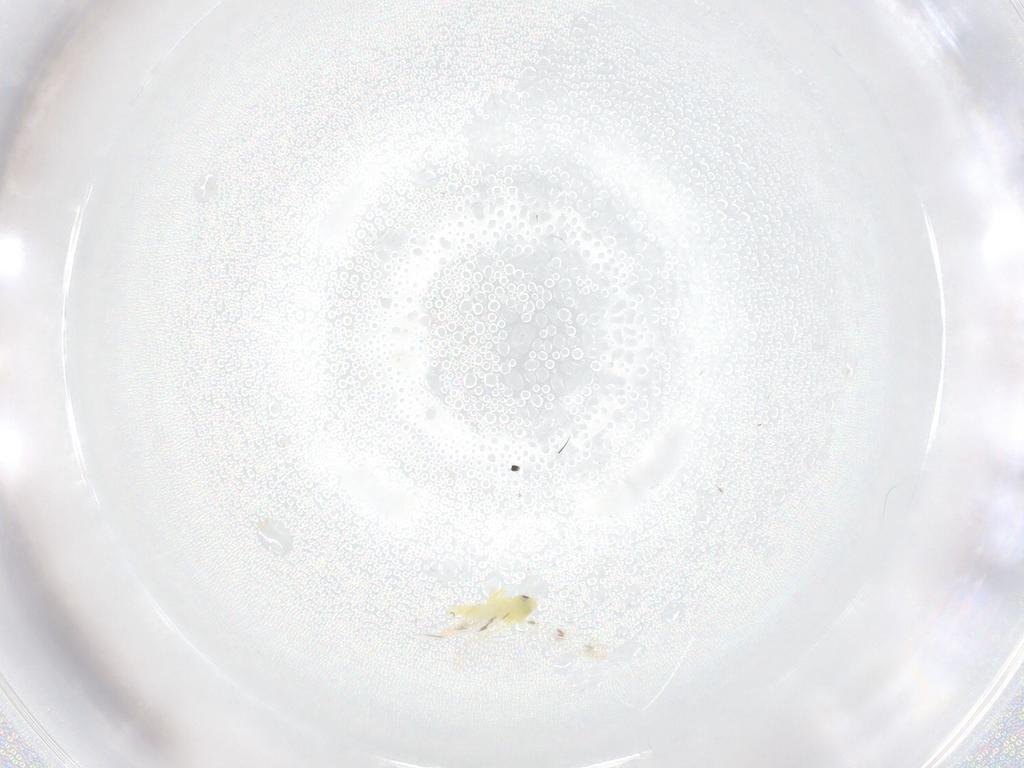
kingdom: Animalia
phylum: Arthropoda
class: Insecta
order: Hemiptera
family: Aleyrodidae
